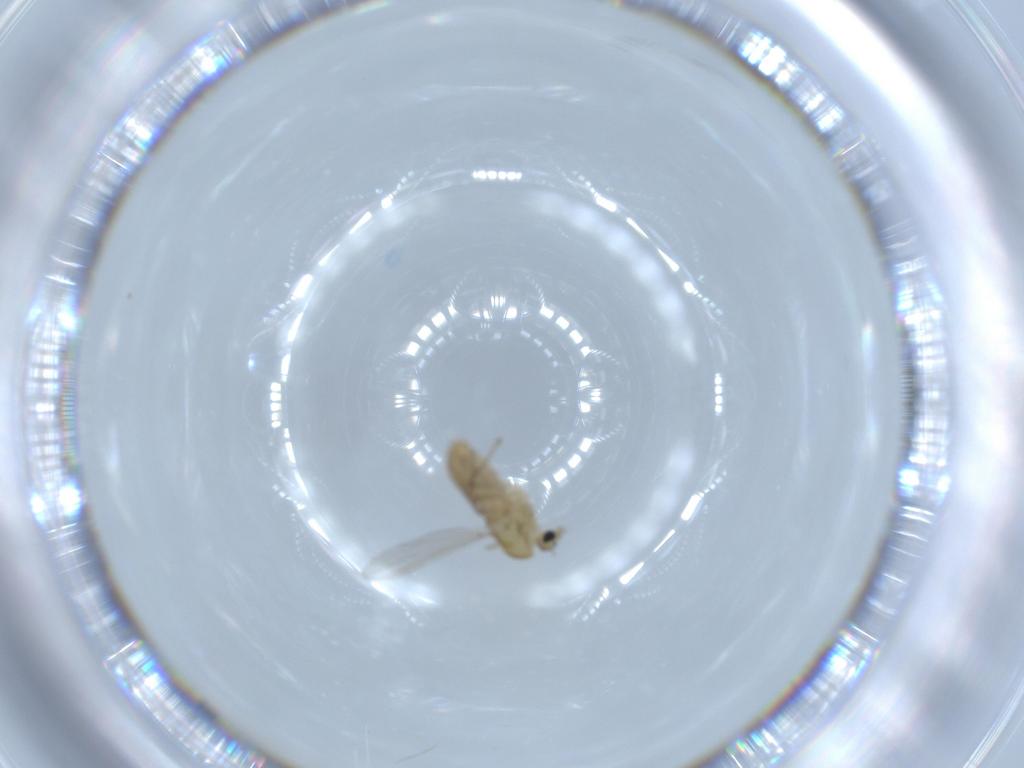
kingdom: Animalia
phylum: Arthropoda
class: Insecta
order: Diptera
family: Chironomidae
